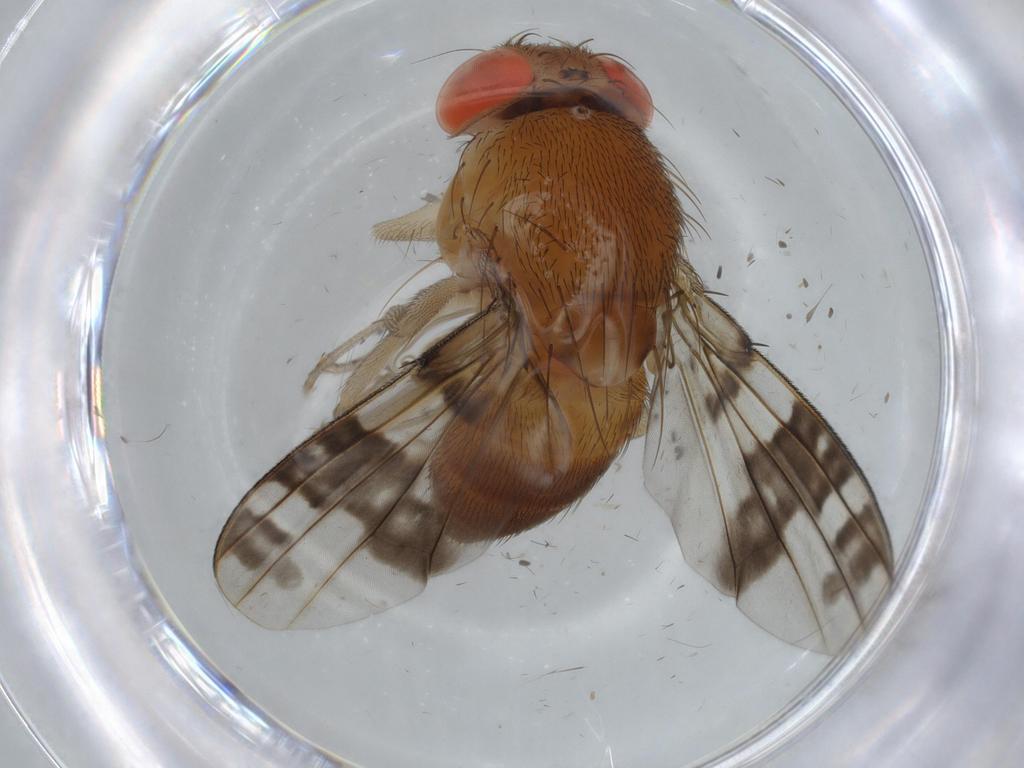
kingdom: Animalia
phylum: Arthropoda
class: Insecta
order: Diptera
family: Drosophilidae
